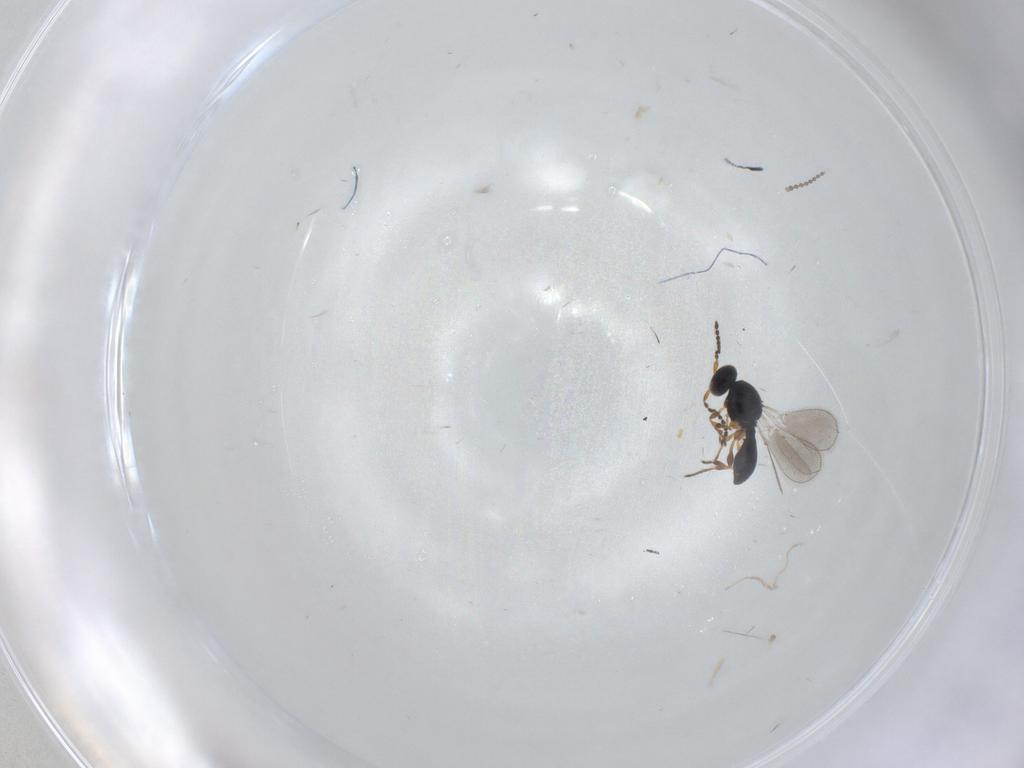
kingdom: Animalia
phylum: Arthropoda
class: Insecta
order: Hymenoptera
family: Platygastridae
